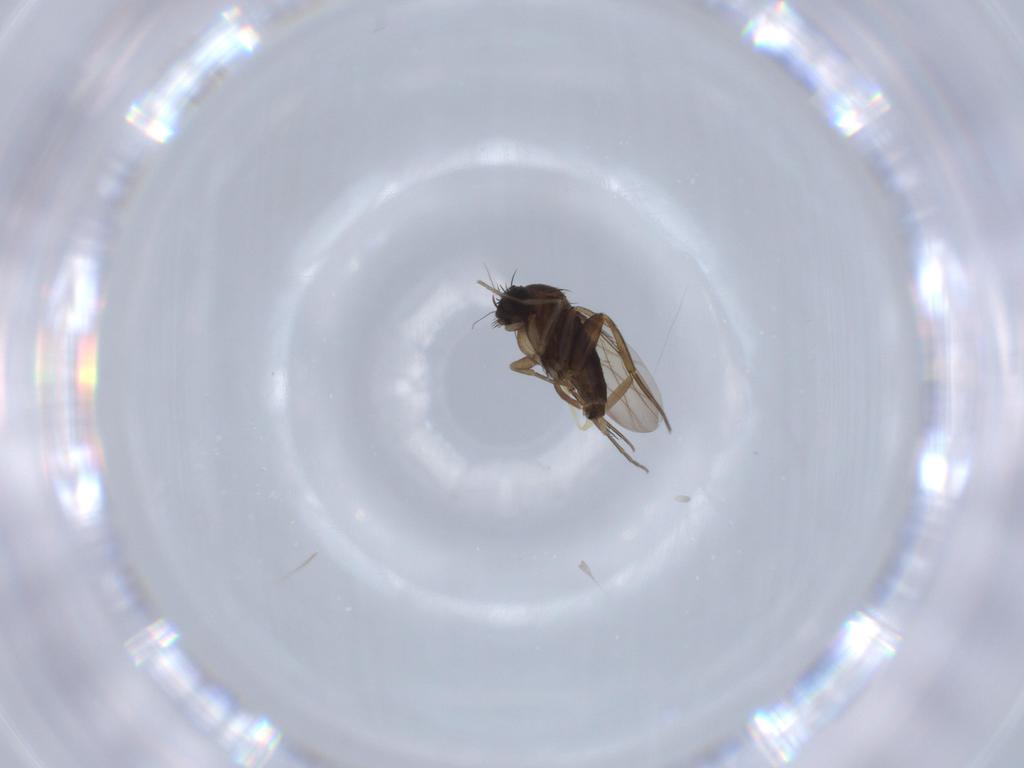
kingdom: Animalia
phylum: Arthropoda
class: Insecta
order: Diptera
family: Phoridae
